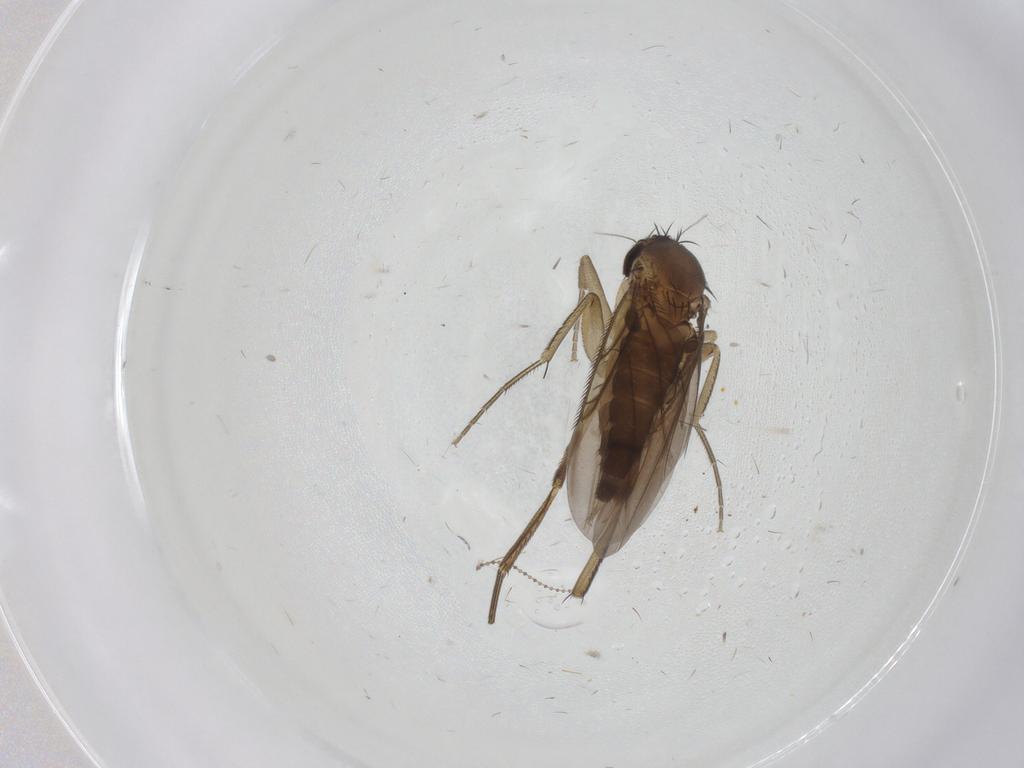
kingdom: Animalia
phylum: Arthropoda
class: Insecta
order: Diptera
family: Phoridae
